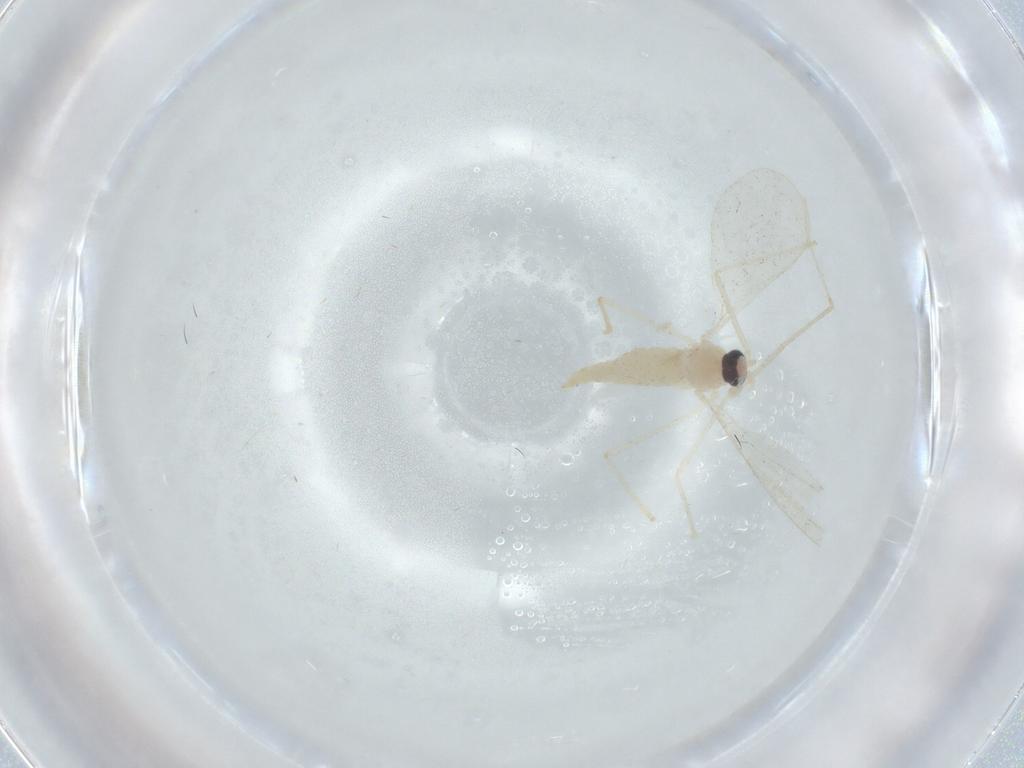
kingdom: Animalia
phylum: Arthropoda
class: Insecta
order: Diptera
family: Cecidomyiidae
